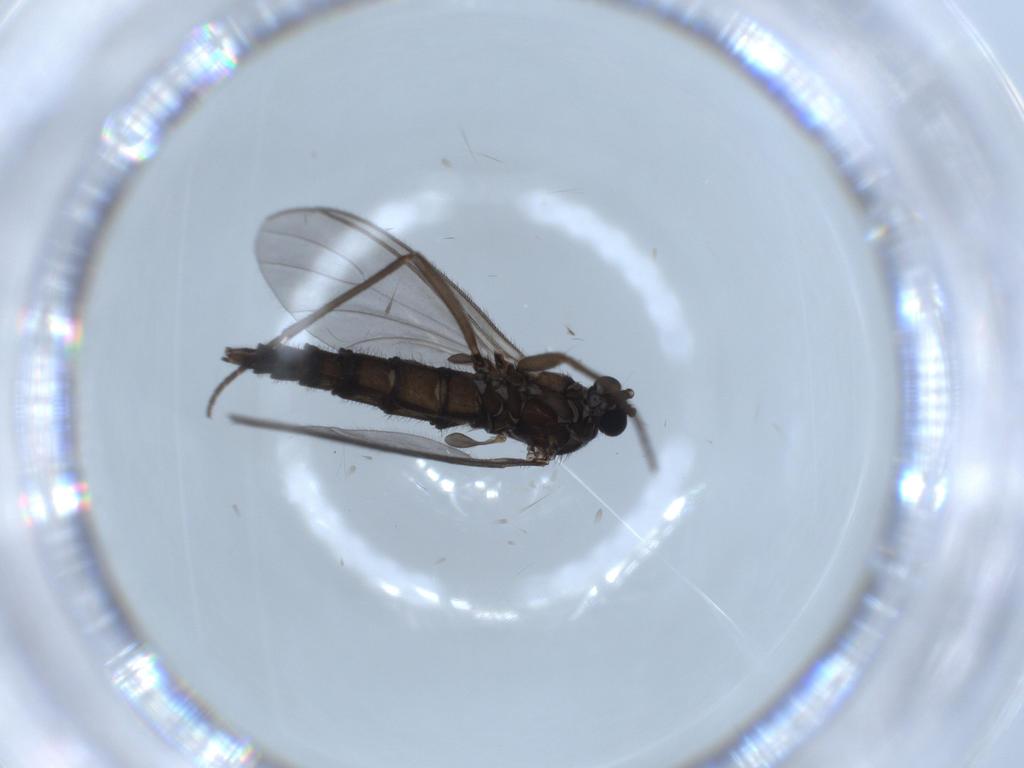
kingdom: Animalia
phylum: Arthropoda
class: Insecta
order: Diptera
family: Sciaridae
